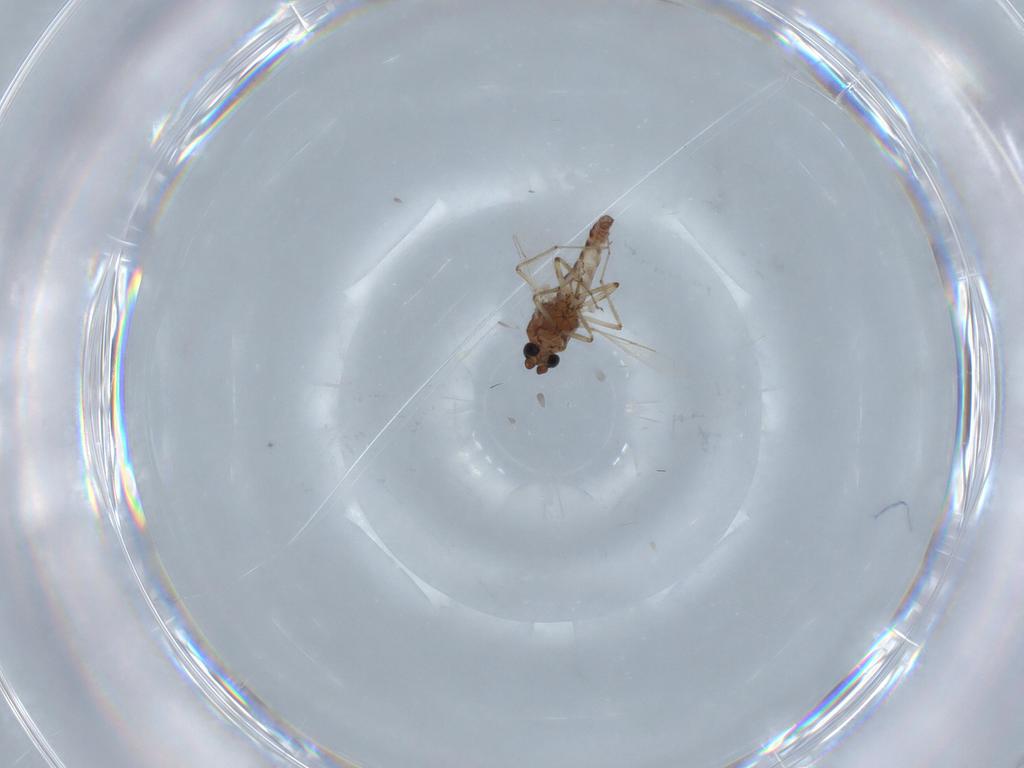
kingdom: Animalia
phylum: Arthropoda
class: Insecta
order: Diptera
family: Ceratopogonidae
